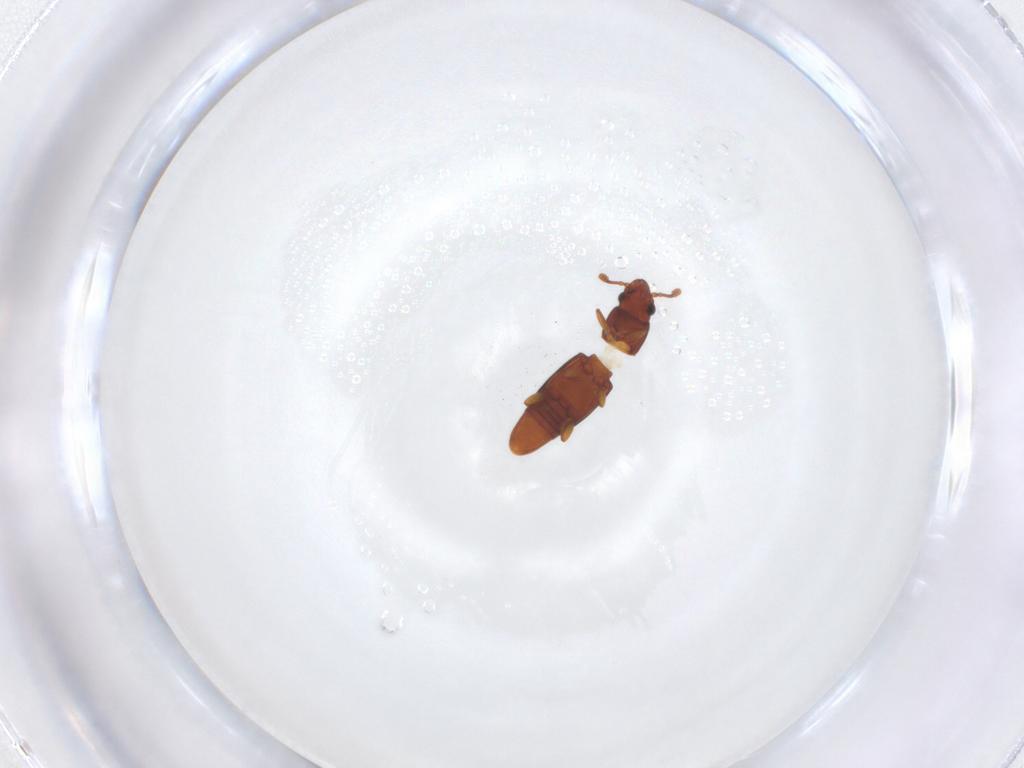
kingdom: Animalia
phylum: Arthropoda
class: Insecta
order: Coleoptera
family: Smicripidae
